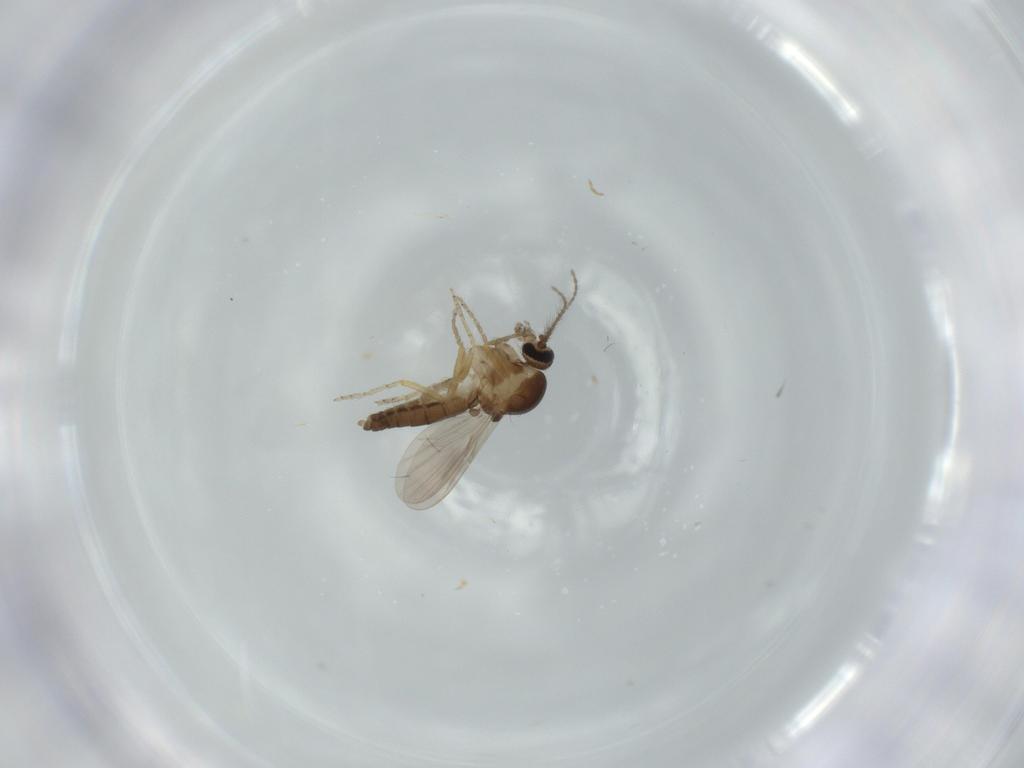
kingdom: Animalia
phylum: Arthropoda
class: Insecta
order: Diptera
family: Ceratopogonidae
